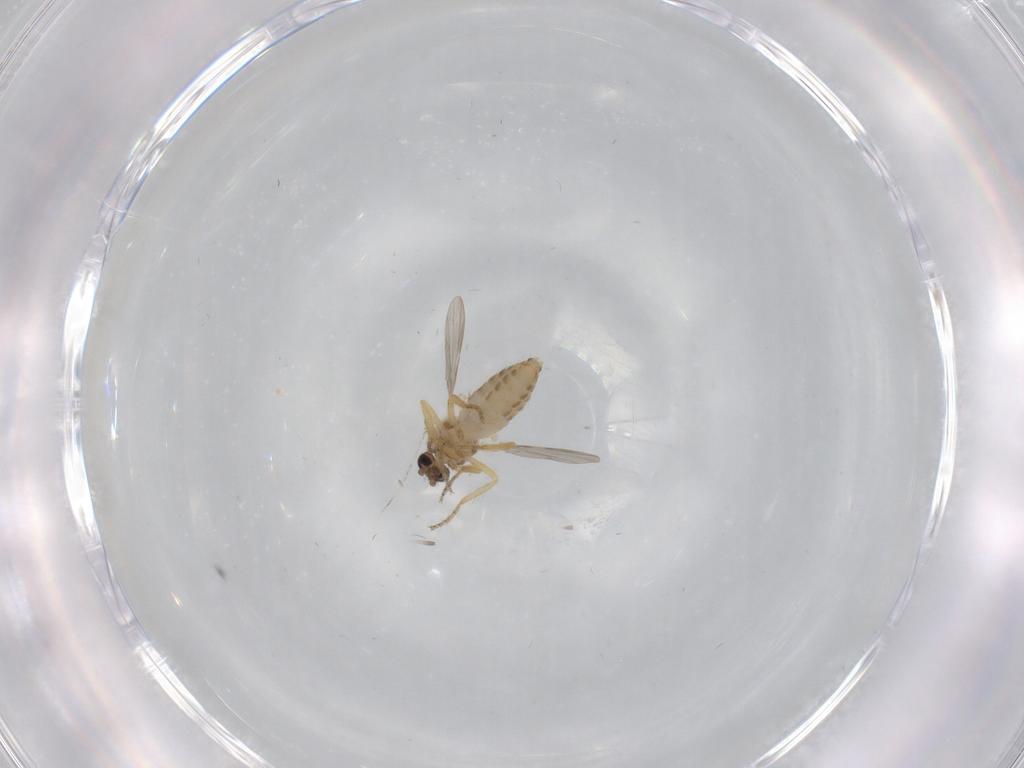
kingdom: Animalia
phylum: Arthropoda
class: Insecta
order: Diptera
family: Ceratopogonidae
